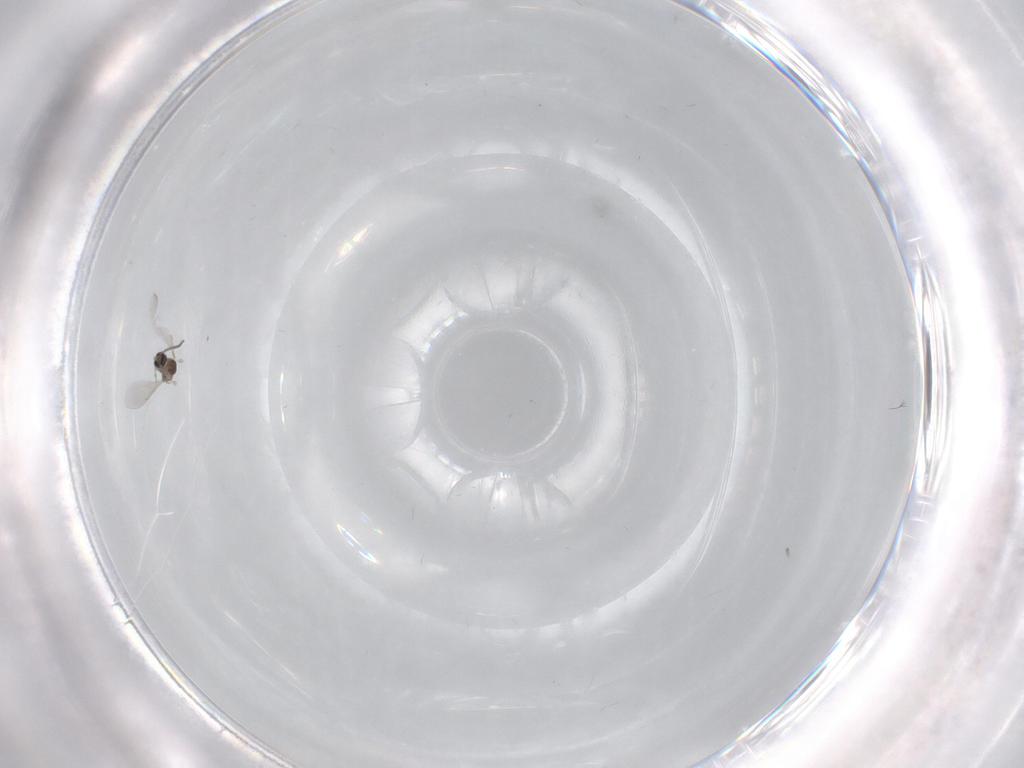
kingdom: Animalia
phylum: Arthropoda
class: Insecta
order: Diptera
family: Cecidomyiidae
